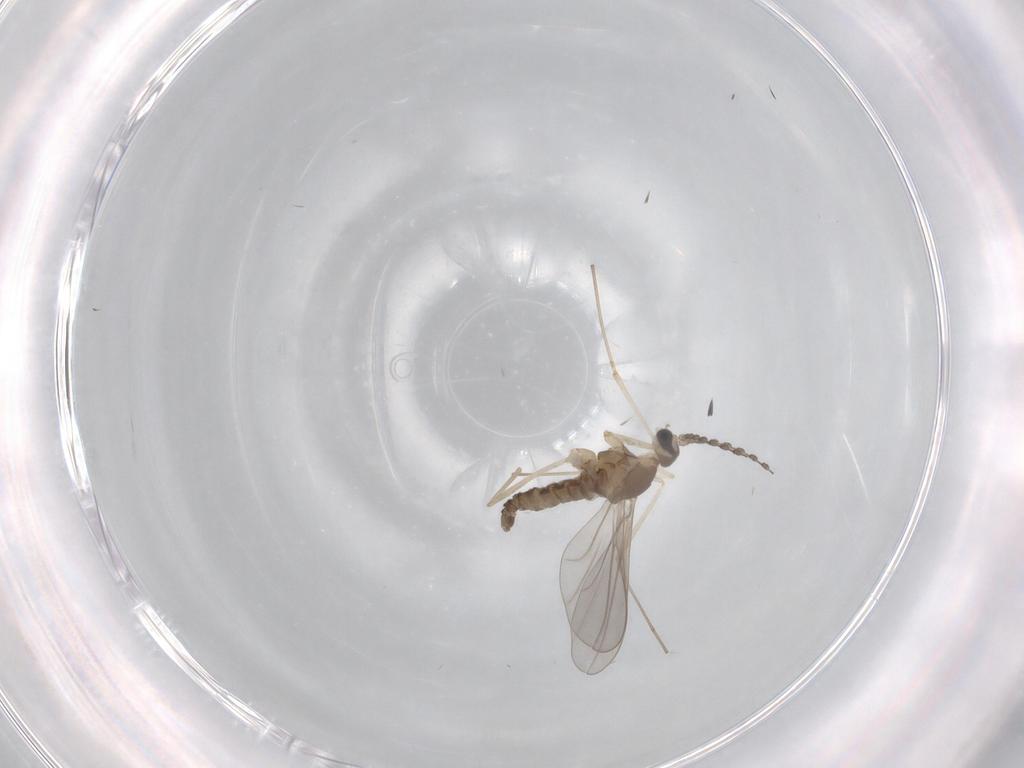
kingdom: Animalia
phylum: Arthropoda
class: Insecta
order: Diptera
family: Cecidomyiidae
